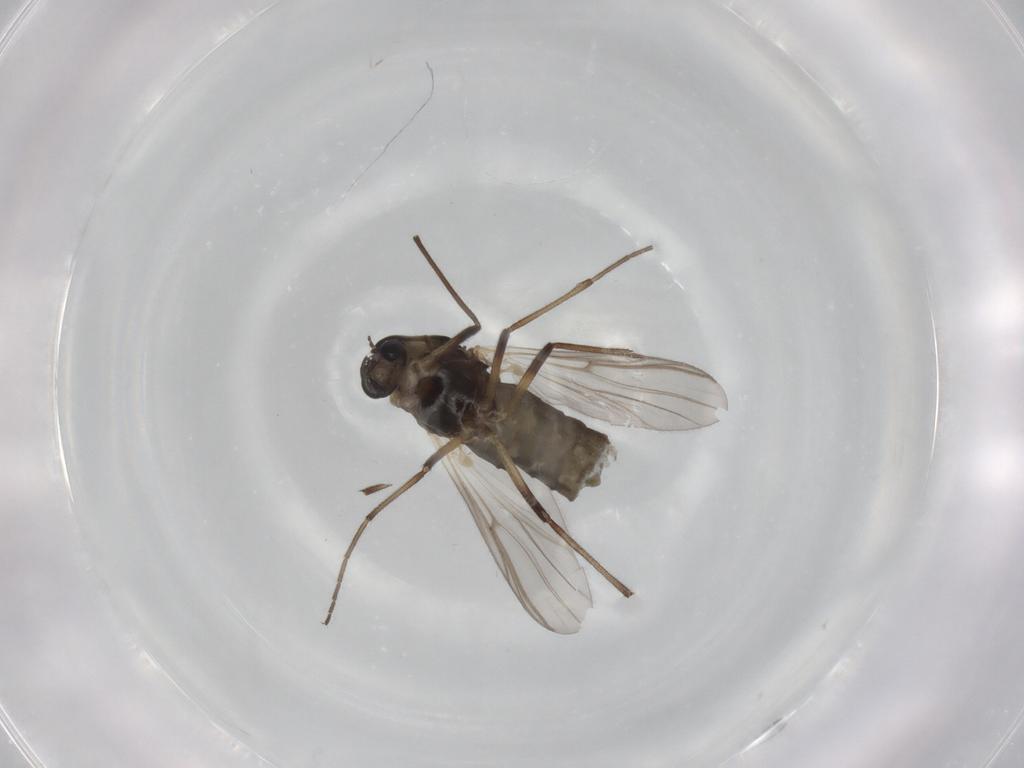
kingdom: Animalia
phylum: Arthropoda
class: Insecta
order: Diptera
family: Chironomidae
